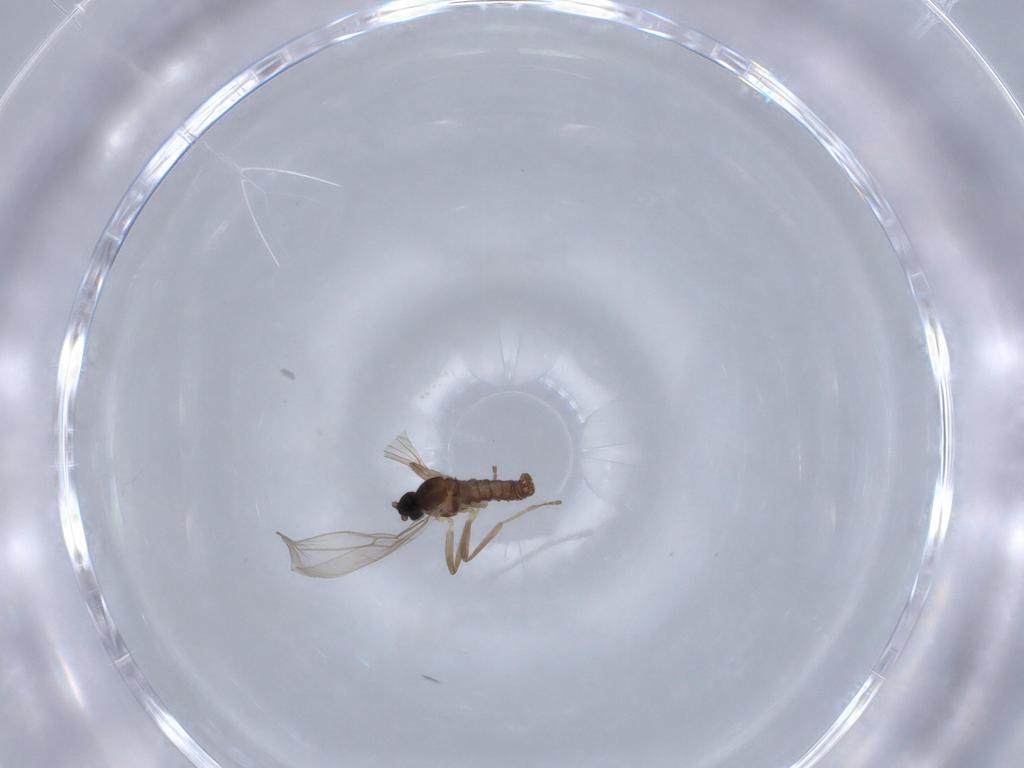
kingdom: Animalia
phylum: Arthropoda
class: Insecta
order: Diptera
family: Chironomidae
